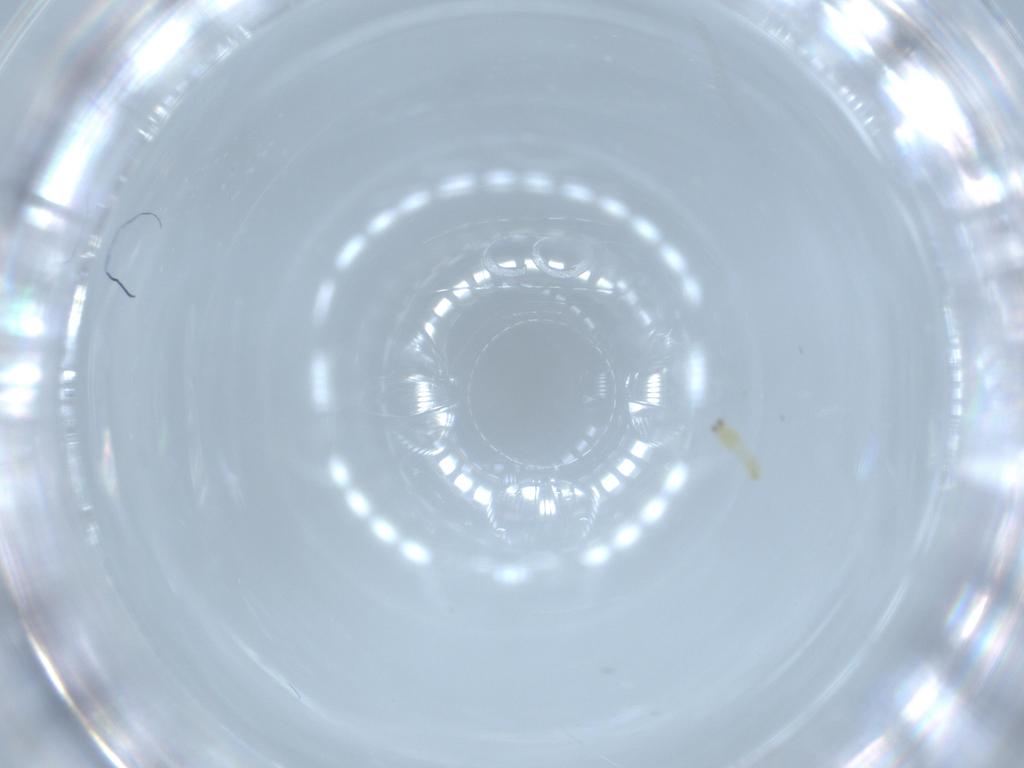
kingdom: Animalia
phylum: Arthropoda
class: Insecta
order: Thysanoptera
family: Thripidae
